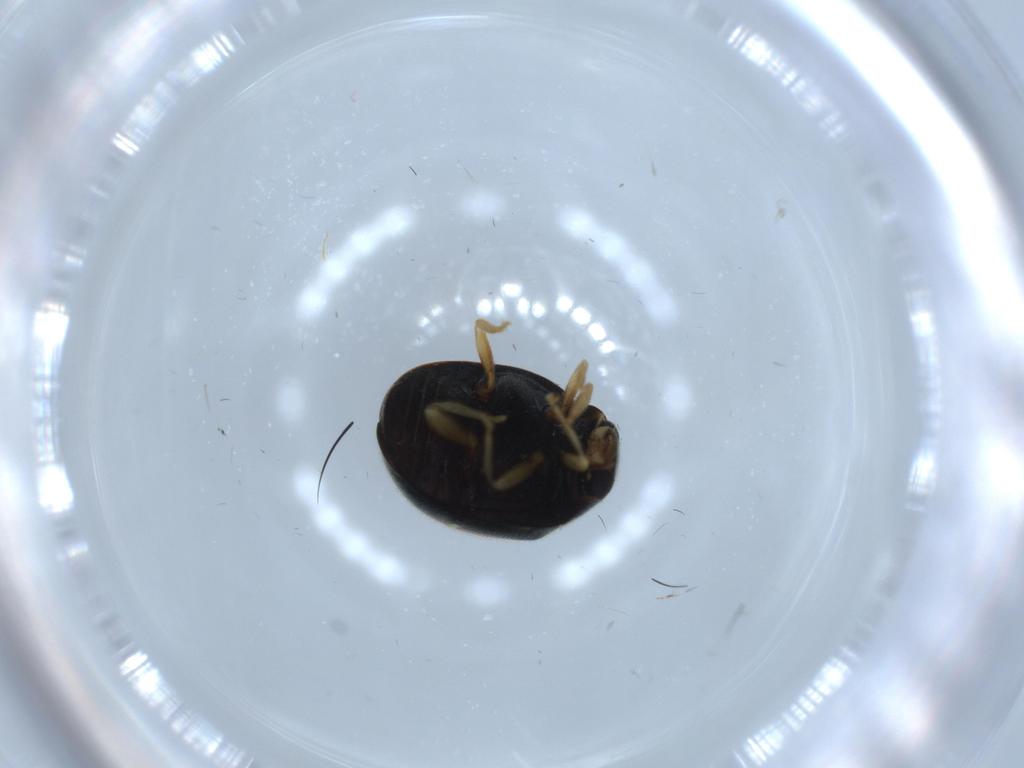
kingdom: Animalia
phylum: Arthropoda
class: Insecta
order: Coleoptera
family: Coccinellidae
